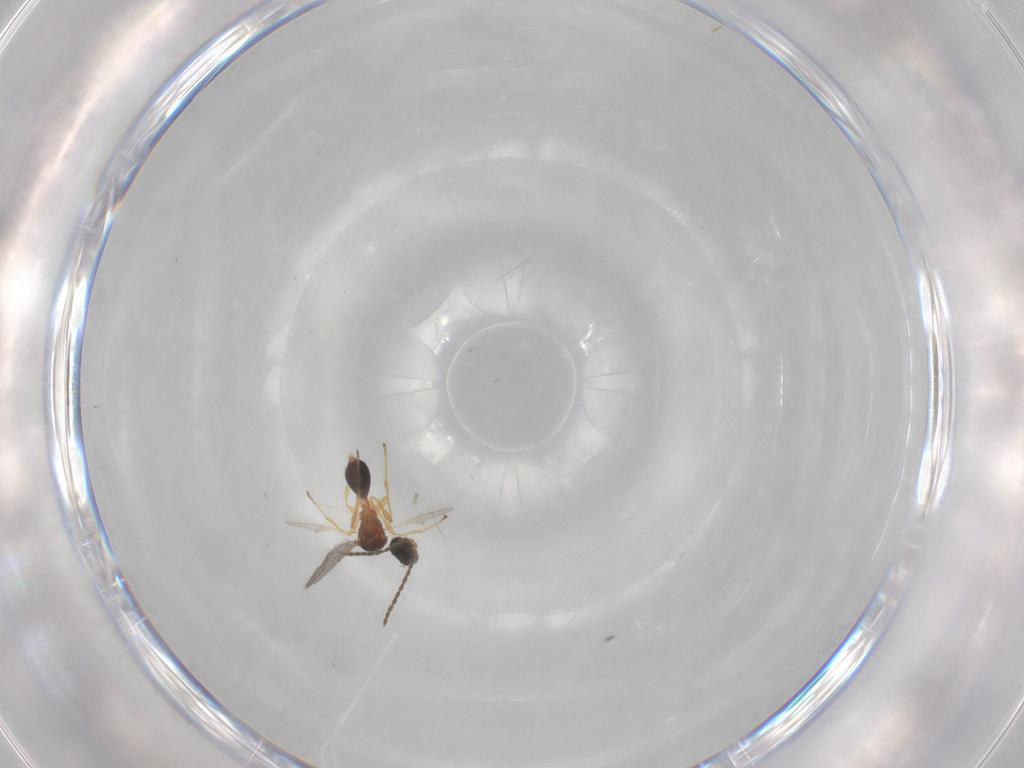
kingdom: Animalia
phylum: Arthropoda
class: Insecta
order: Hymenoptera
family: Diapriidae
